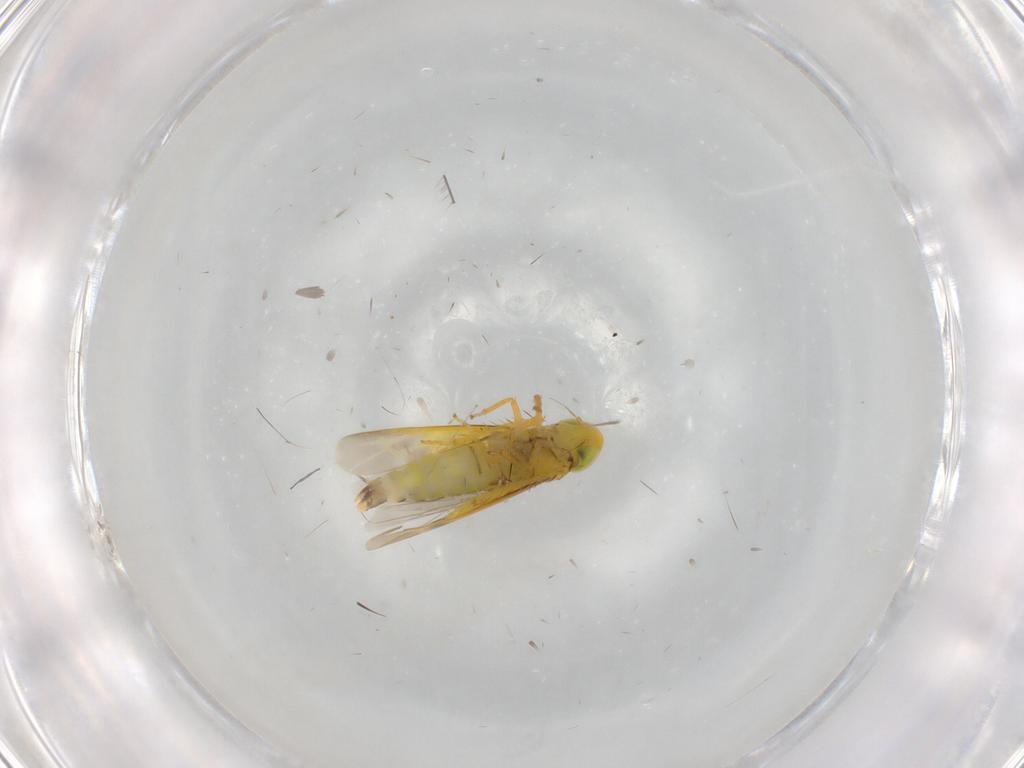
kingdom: Animalia
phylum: Arthropoda
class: Insecta
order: Hemiptera
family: Cicadellidae
